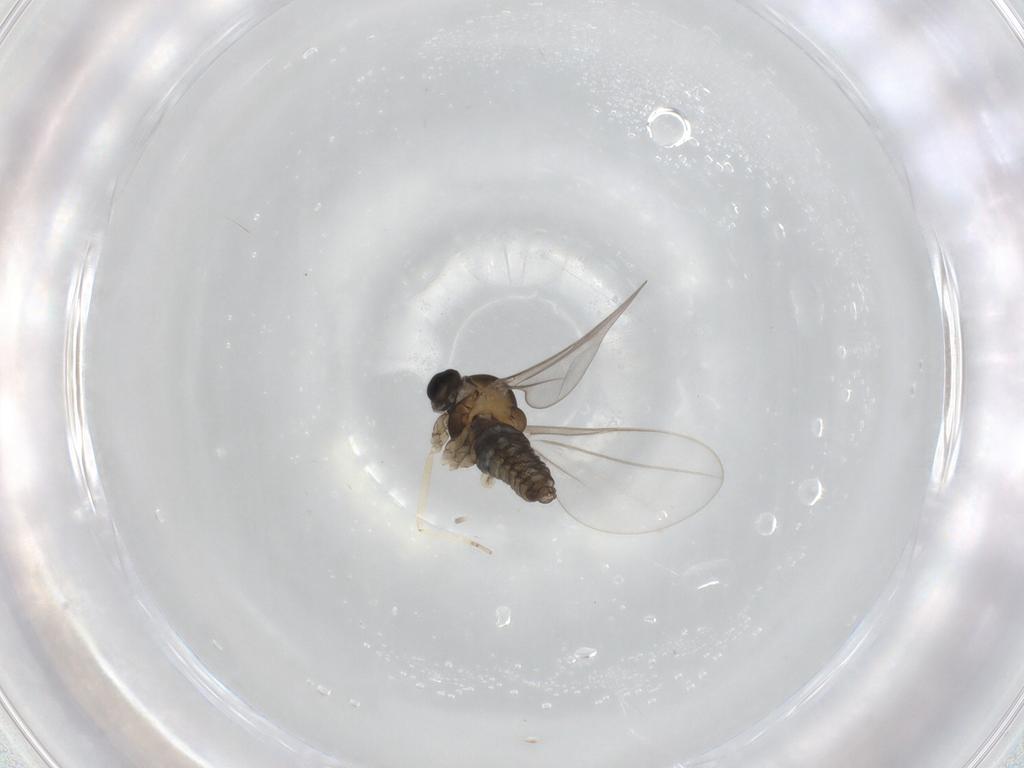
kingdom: Animalia
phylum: Arthropoda
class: Insecta
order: Diptera
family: Cecidomyiidae
